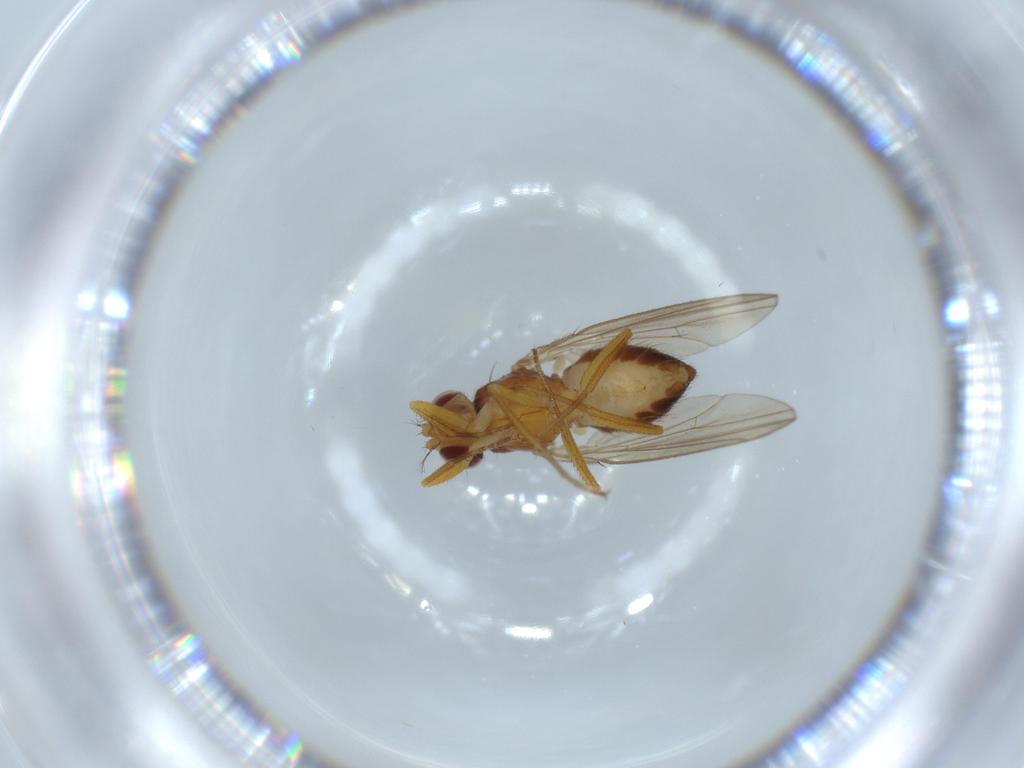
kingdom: Animalia
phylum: Arthropoda
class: Insecta
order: Diptera
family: Drosophilidae
